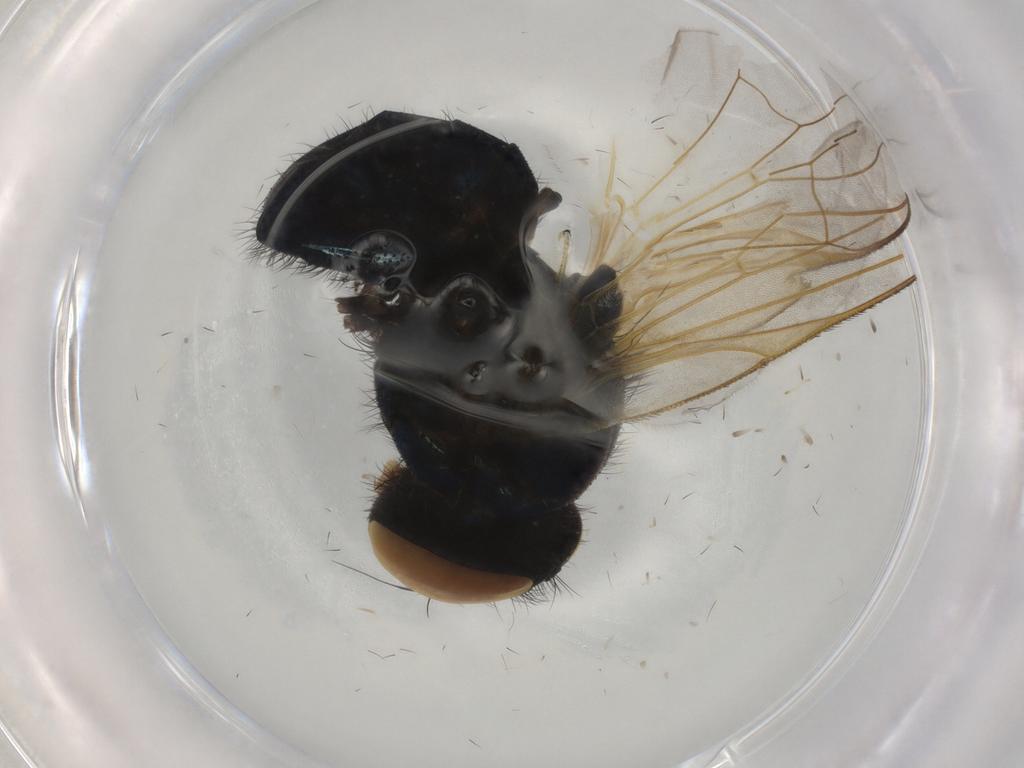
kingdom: Animalia
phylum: Arthropoda
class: Insecta
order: Diptera
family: Lonchaeidae
